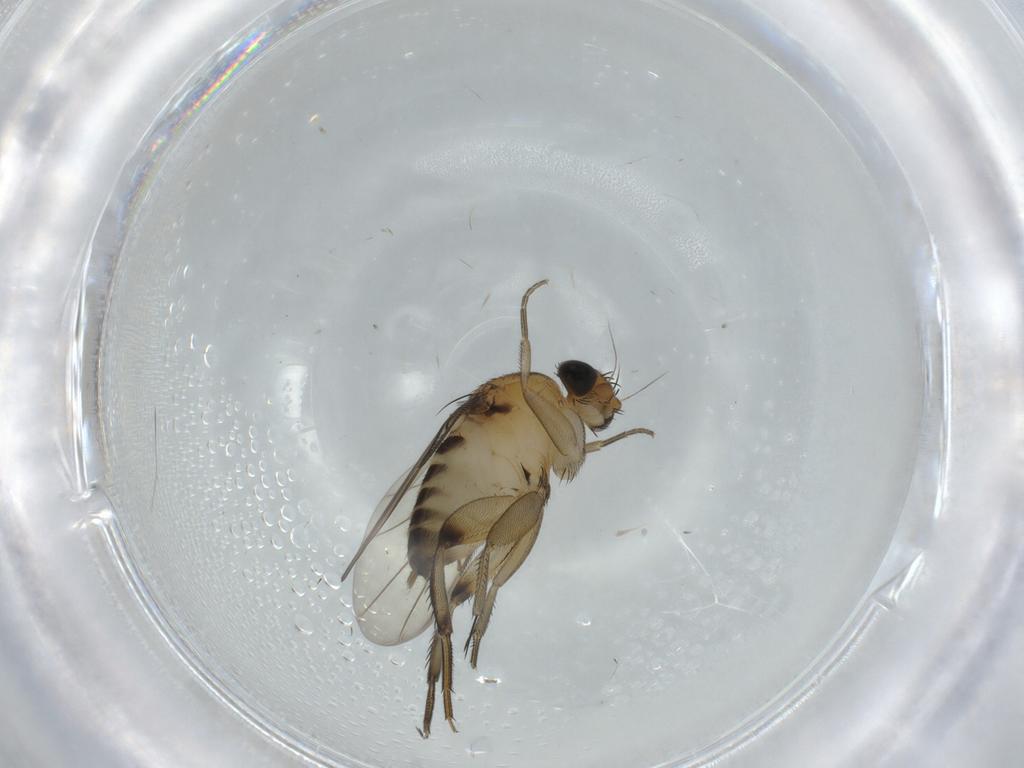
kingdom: Animalia
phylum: Arthropoda
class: Insecta
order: Diptera
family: Phoridae
